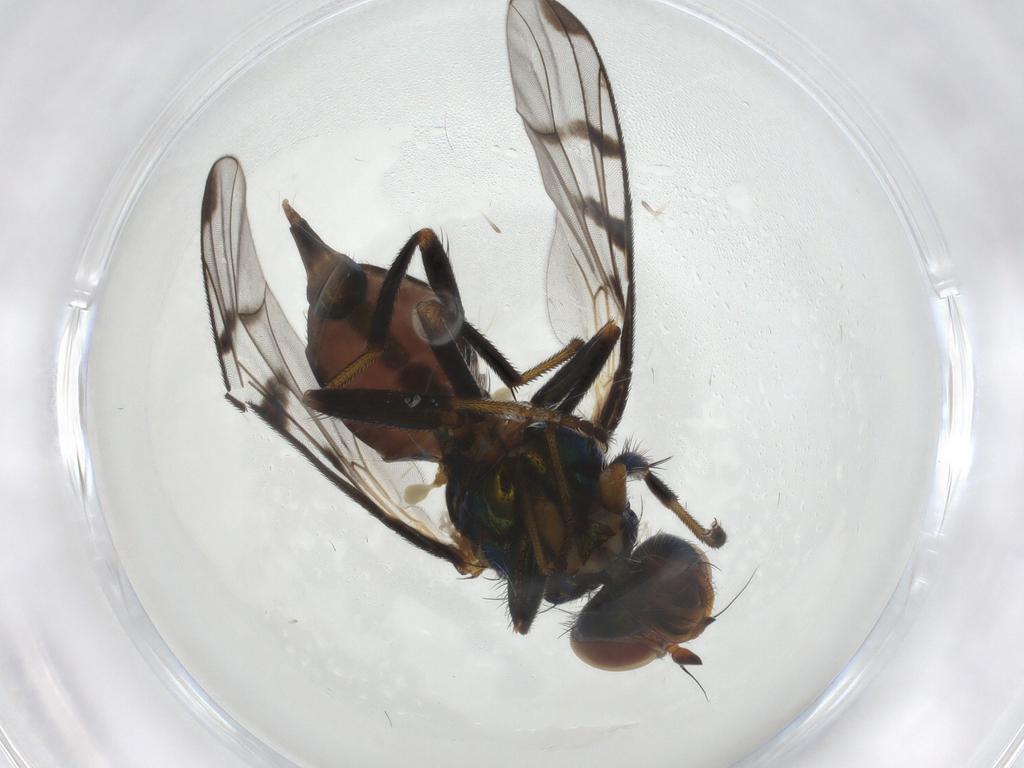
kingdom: Animalia
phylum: Arthropoda
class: Insecta
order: Diptera
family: Platystomatidae
